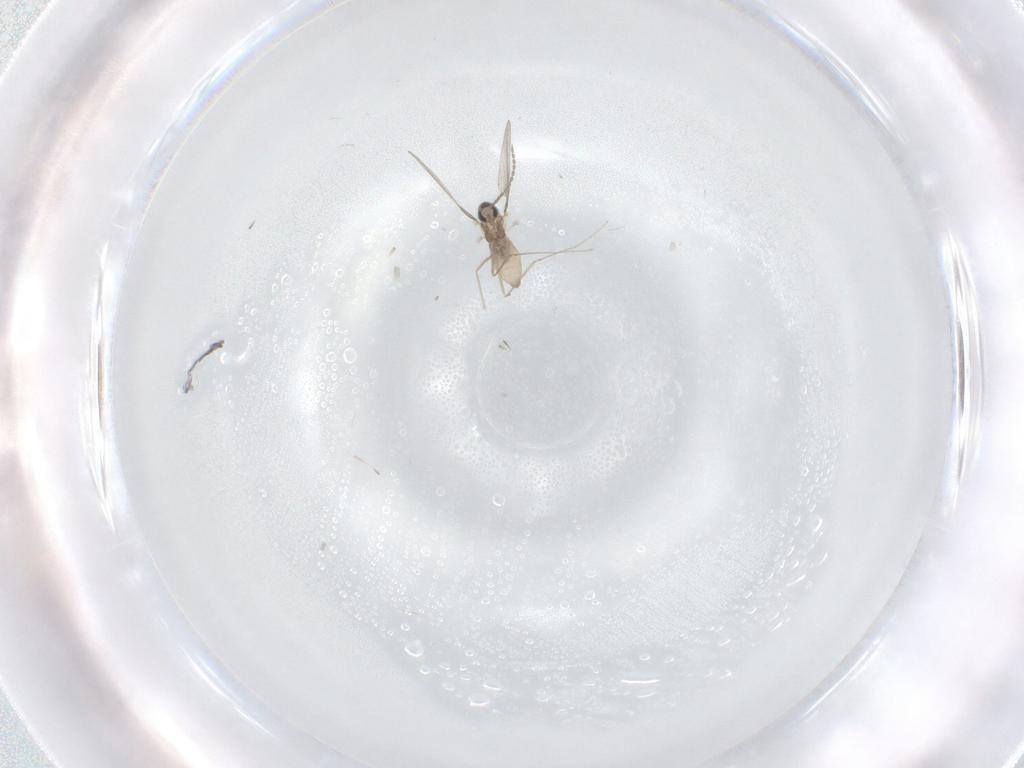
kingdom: Animalia
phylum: Arthropoda
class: Insecta
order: Diptera
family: Cecidomyiidae
